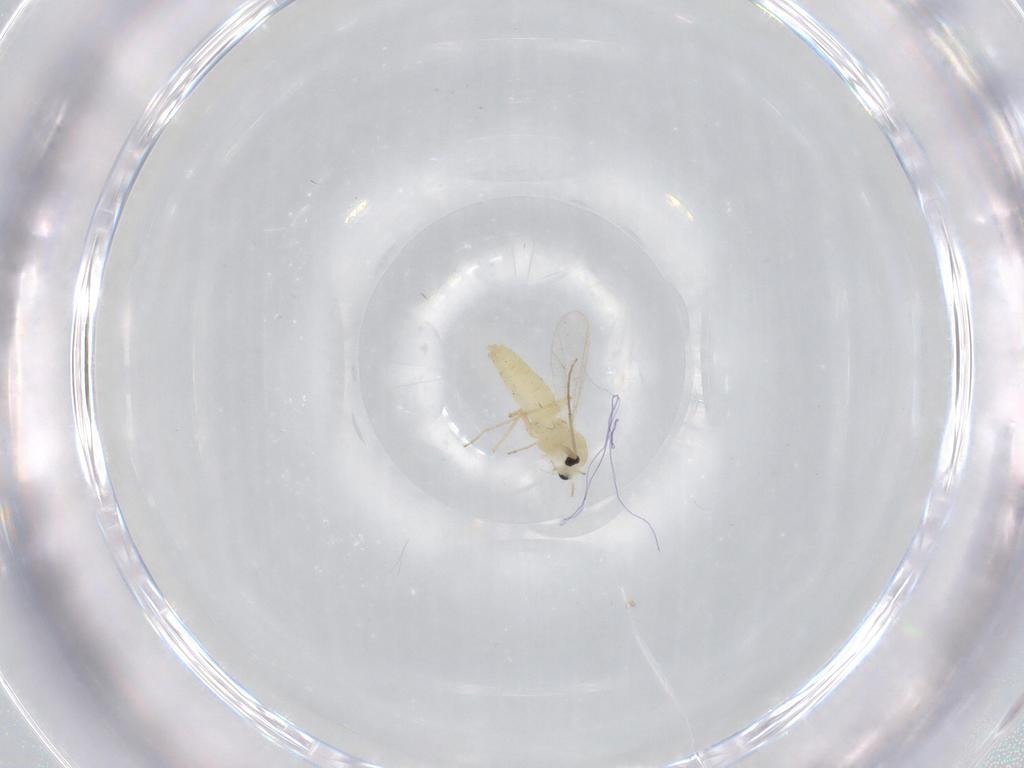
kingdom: Animalia
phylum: Arthropoda
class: Insecta
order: Diptera
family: Chironomidae
